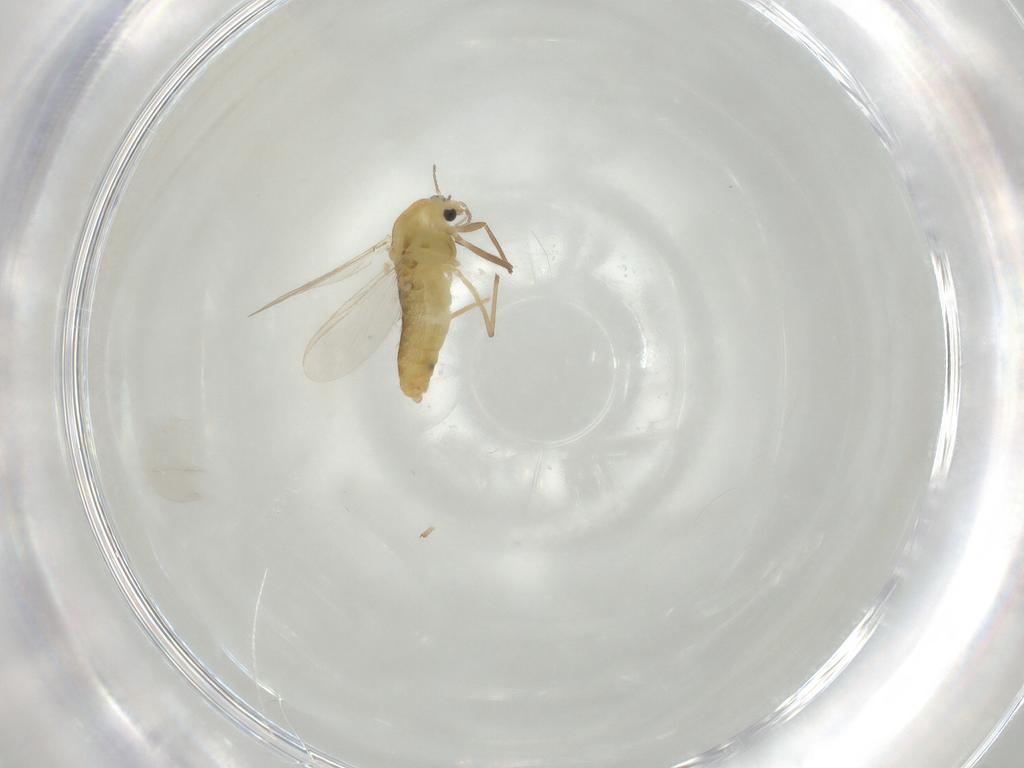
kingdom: Animalia
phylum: Arthropoda
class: Insecta
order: Diptera
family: Chironomidae
